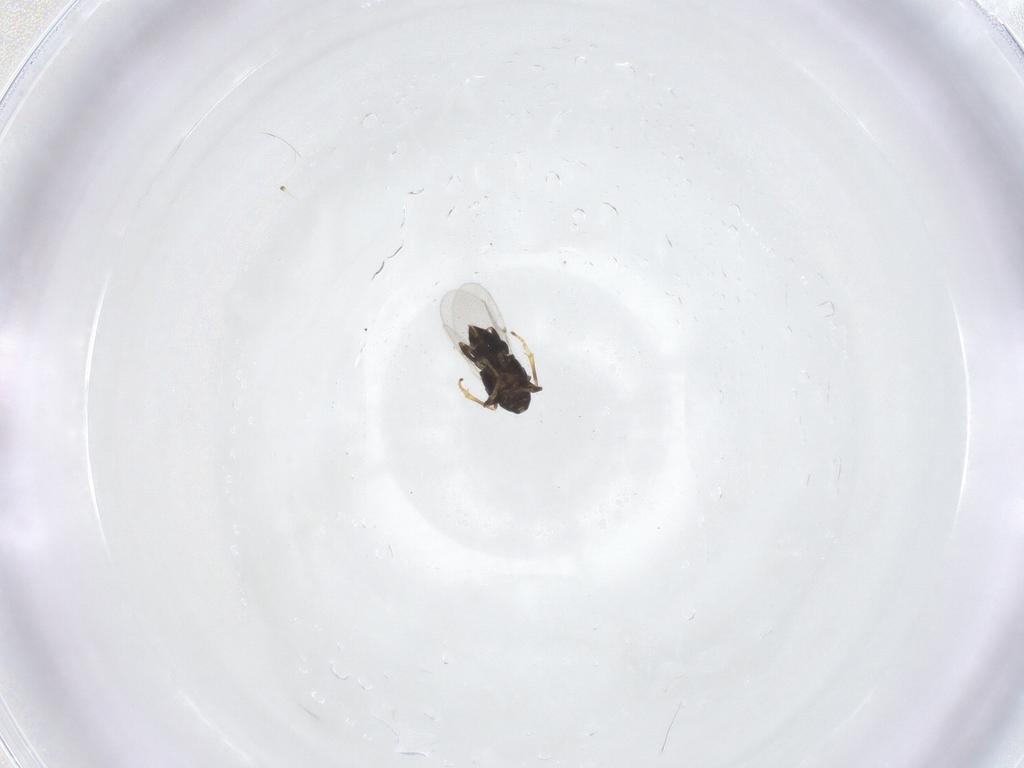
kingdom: Animalia
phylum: Arthropoda
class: Insecta
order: Hymenoptera
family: Encyrtidae
